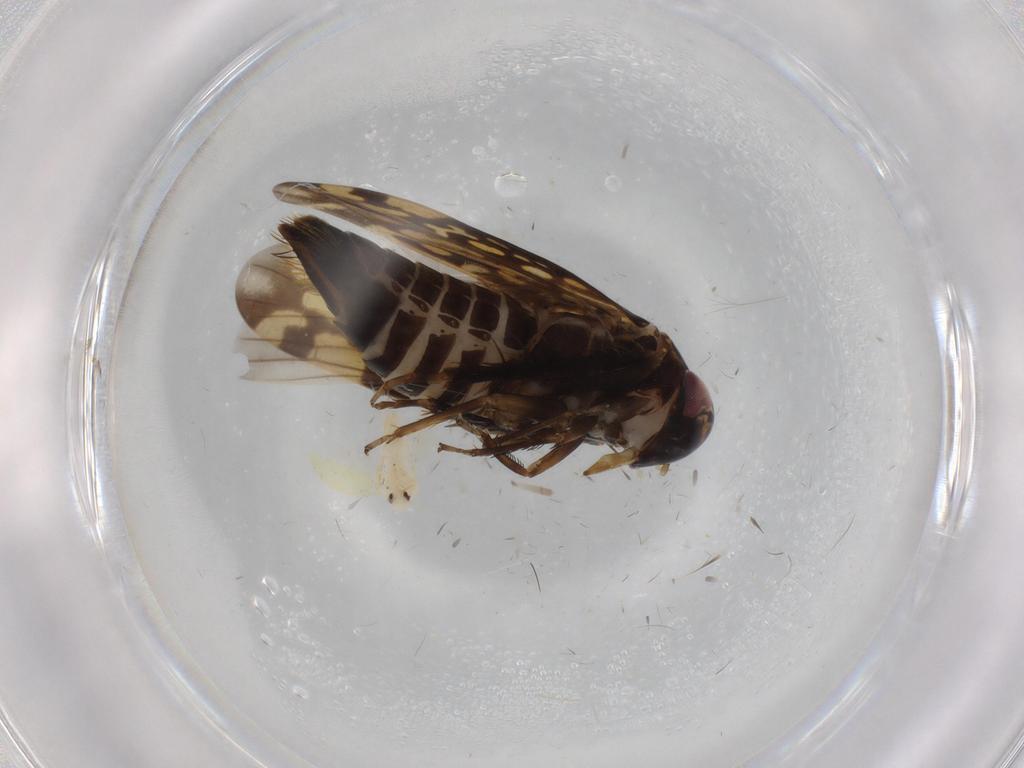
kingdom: Animalia
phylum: Arthropoda
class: Insecta
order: Hemiptera
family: Cicadellidae
